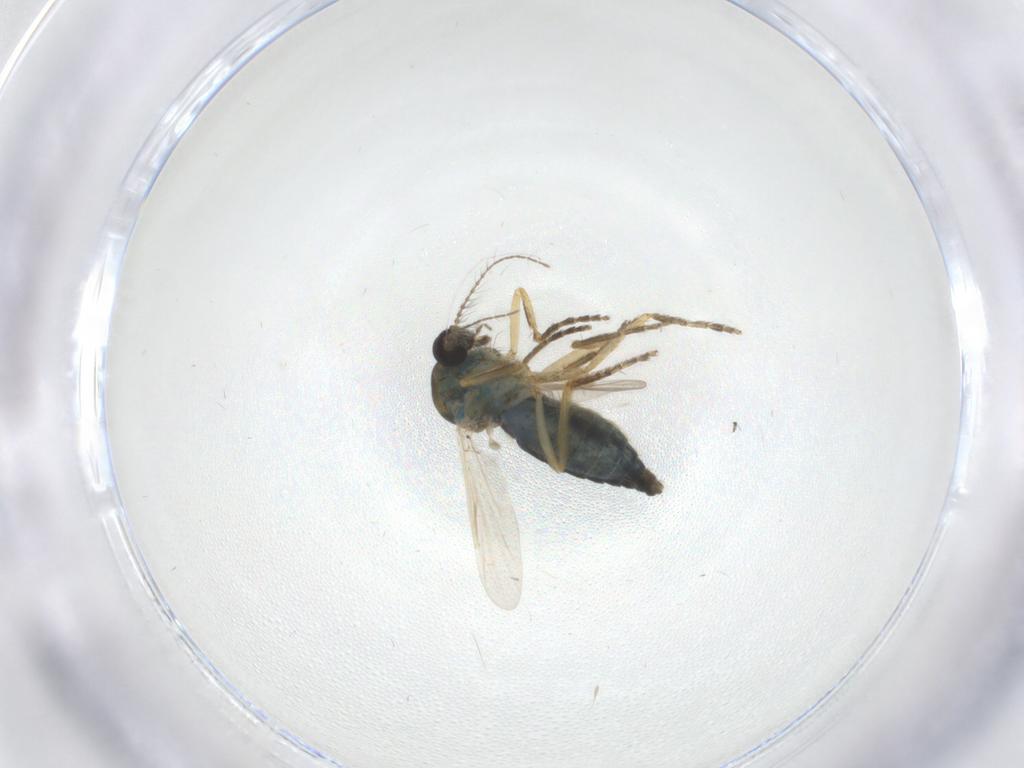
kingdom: Animalia
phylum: Arthropoda
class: Insecta
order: Diptera
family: Ceratopogonidae
